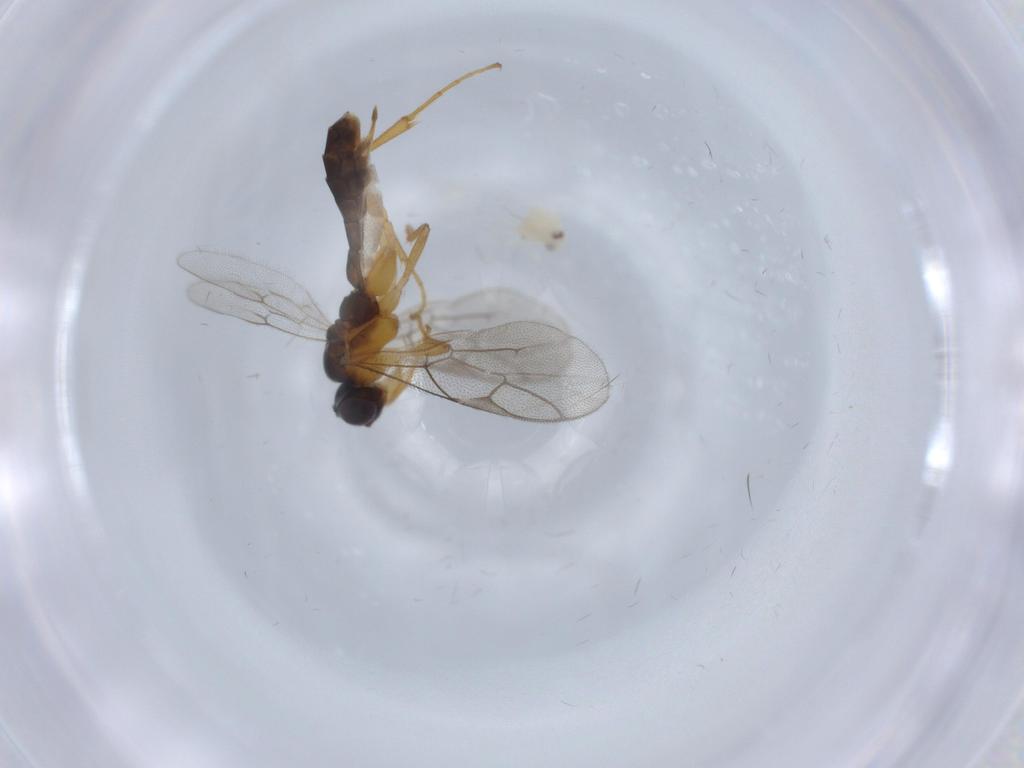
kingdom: Animalia
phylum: Arthropoda
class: Insecta
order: Hymenoptera
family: Ichneumonidae
